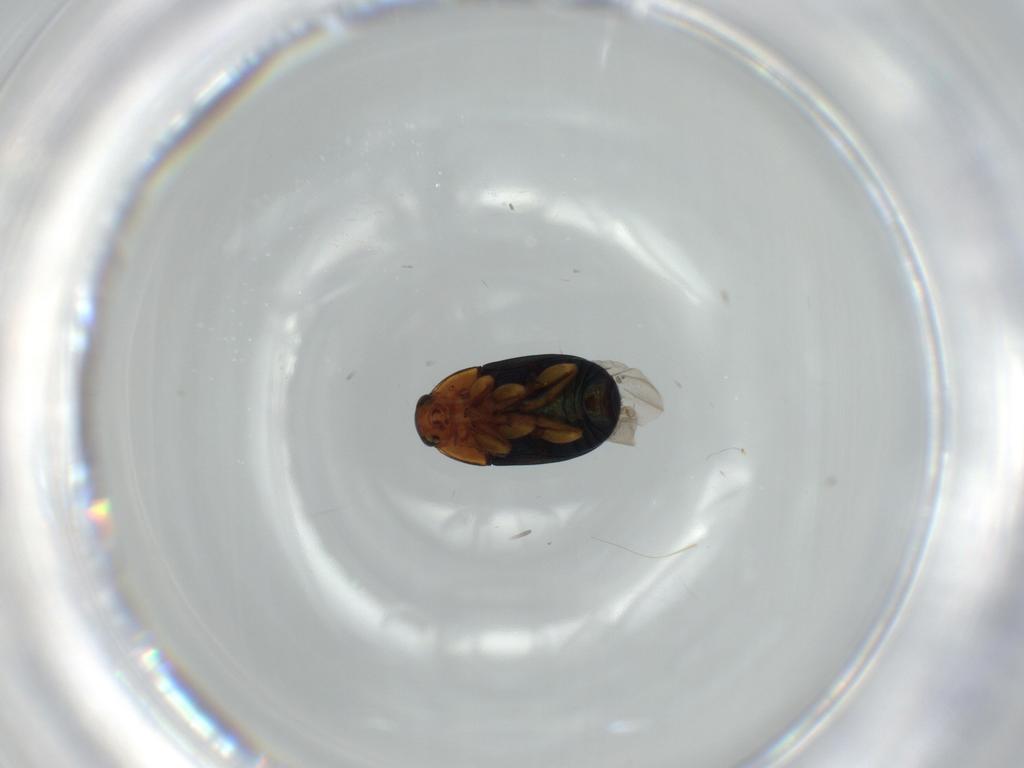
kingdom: Animalia
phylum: Arthropoda
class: Insecta
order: Coleoptera
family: Chrysomelidae
